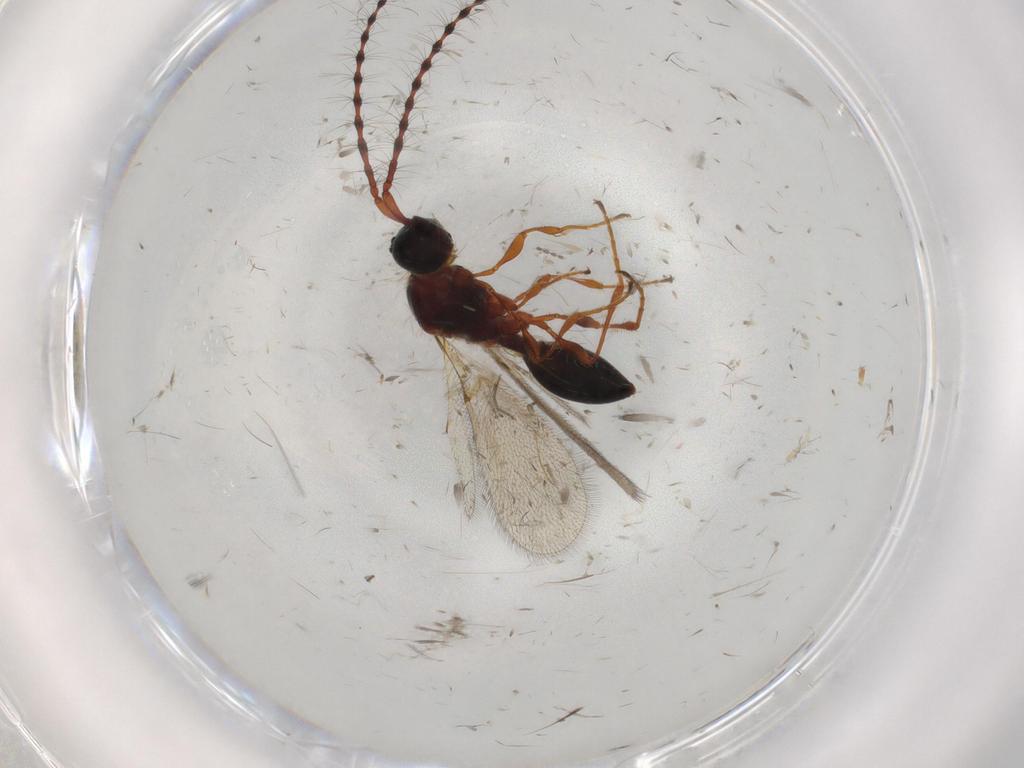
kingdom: Animalia
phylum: Arthropoda
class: Insecta
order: Hymenoptera
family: Diapriidae
